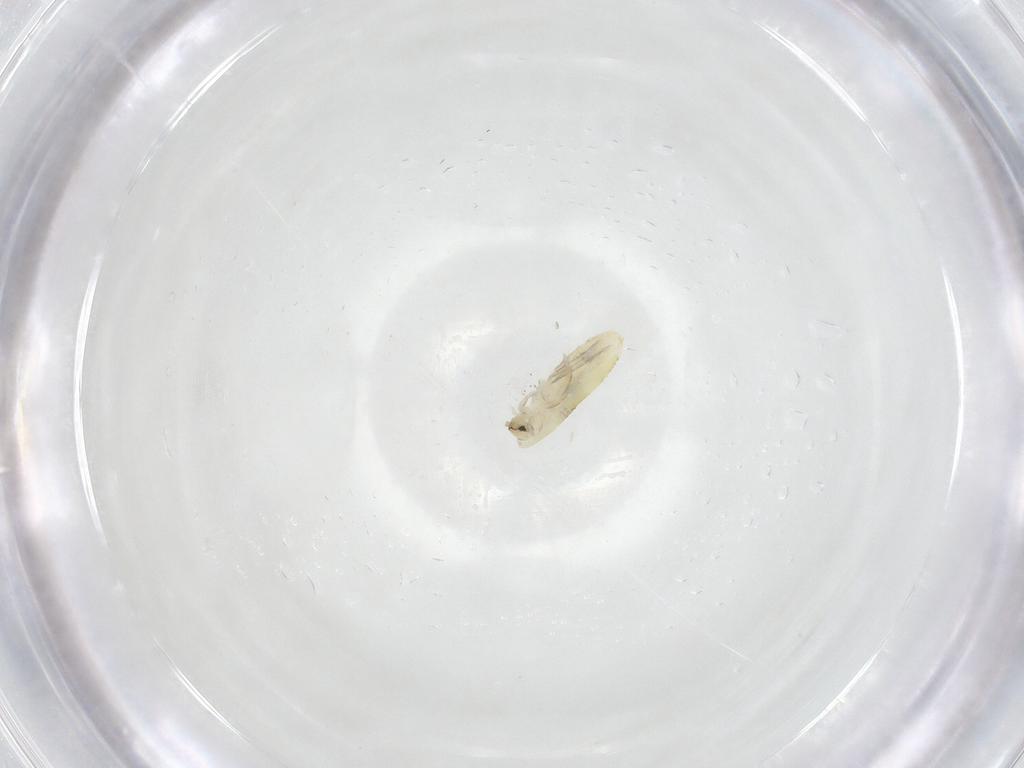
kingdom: Animalia
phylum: Arthropoda
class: Collembola
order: Entomobryomorpha
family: Entomobryidae
